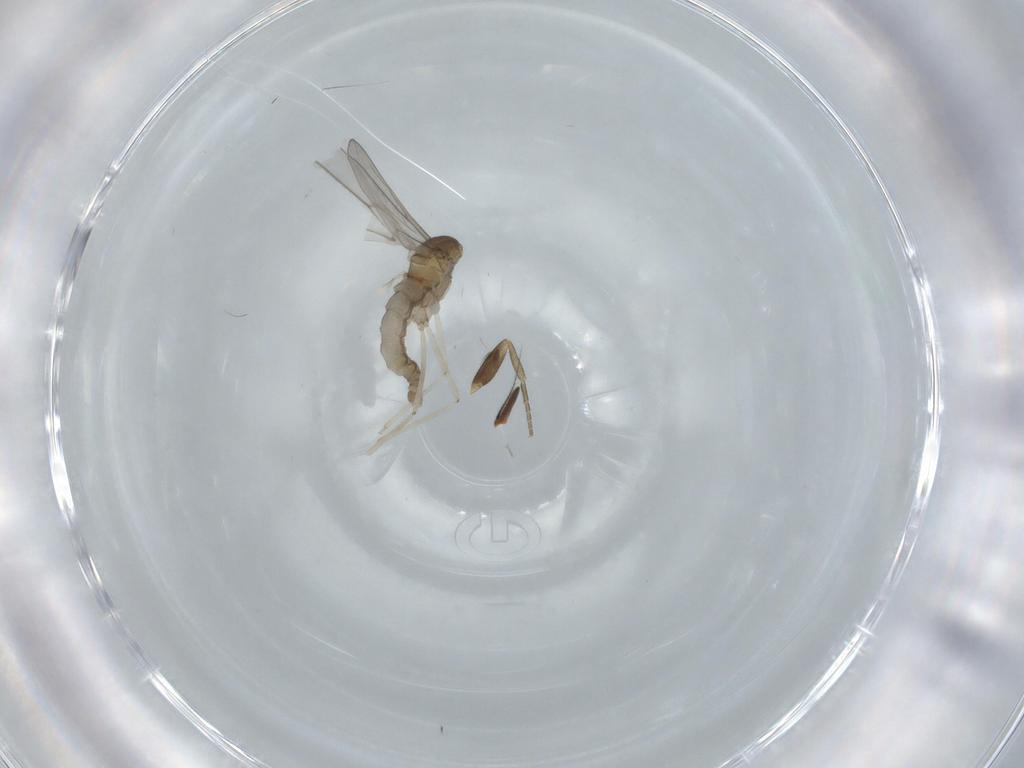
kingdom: Animalia
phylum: Arthropoda
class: Insecta
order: Diptera
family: Phoridae
